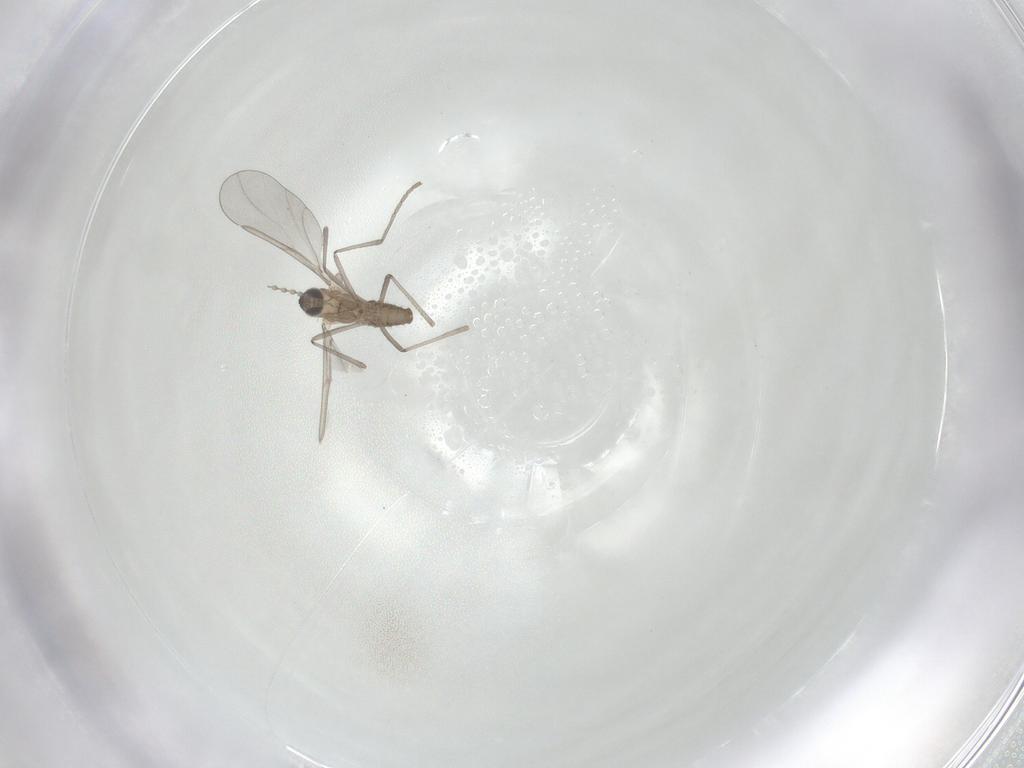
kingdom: Animalia
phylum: Arthropoda
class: Insecta
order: Diptera
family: Cecidomyiidae
